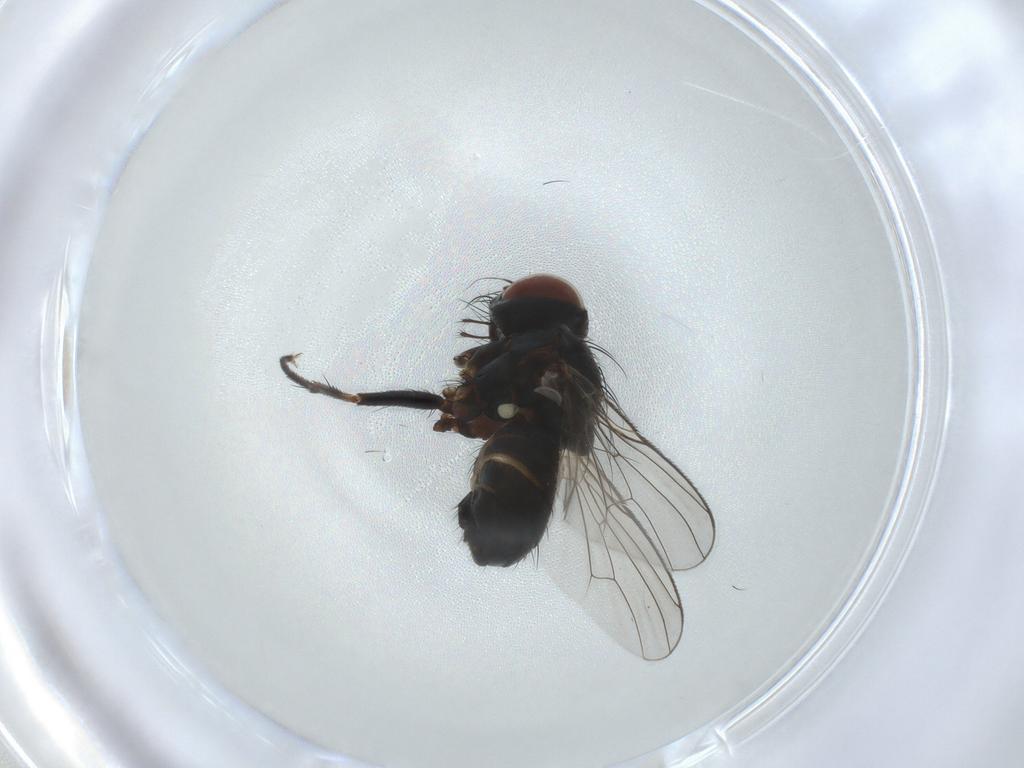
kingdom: Animalia
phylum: Arthropoda
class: Insecta
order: Diptera
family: Muscidae
